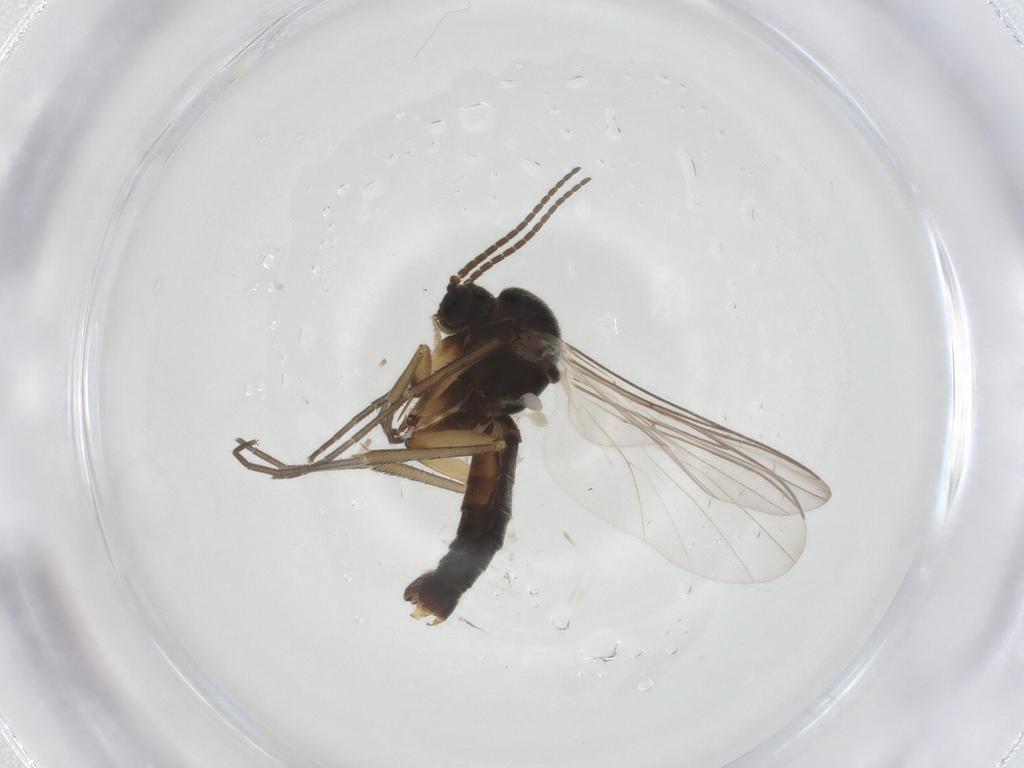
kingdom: Animalia
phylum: Arthropoda
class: Insecta
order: Diptera
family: Mycetophilidae
